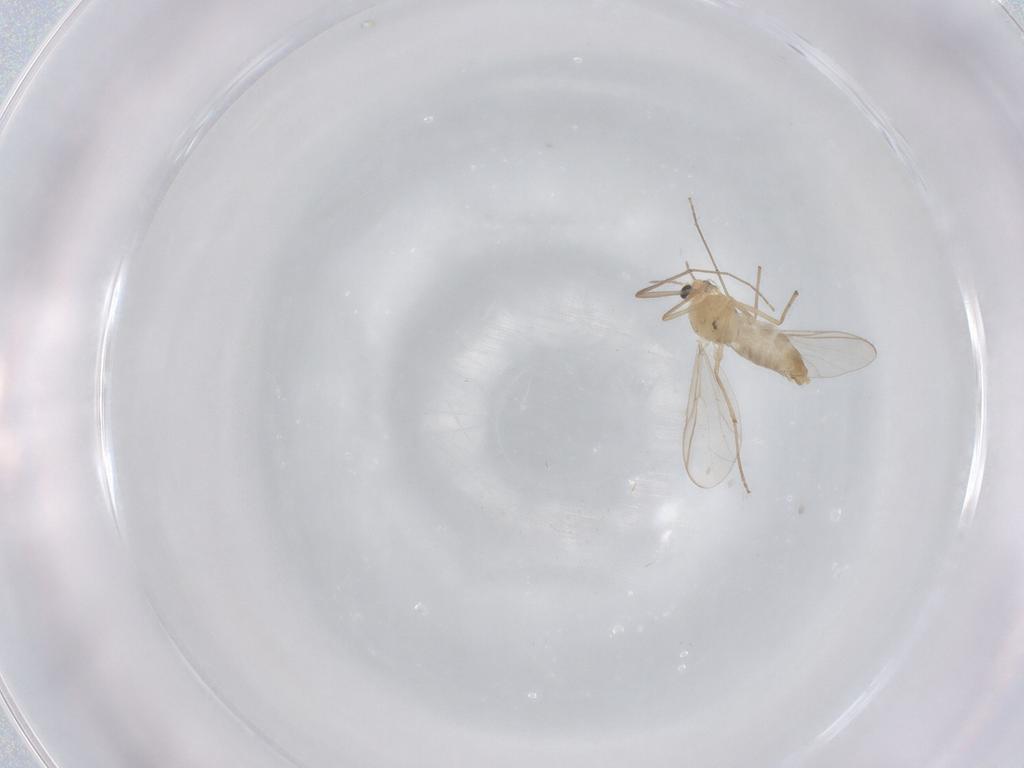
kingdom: Animalia
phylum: Arthropoda
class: Insecta
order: Diptera
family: Chironomidae
